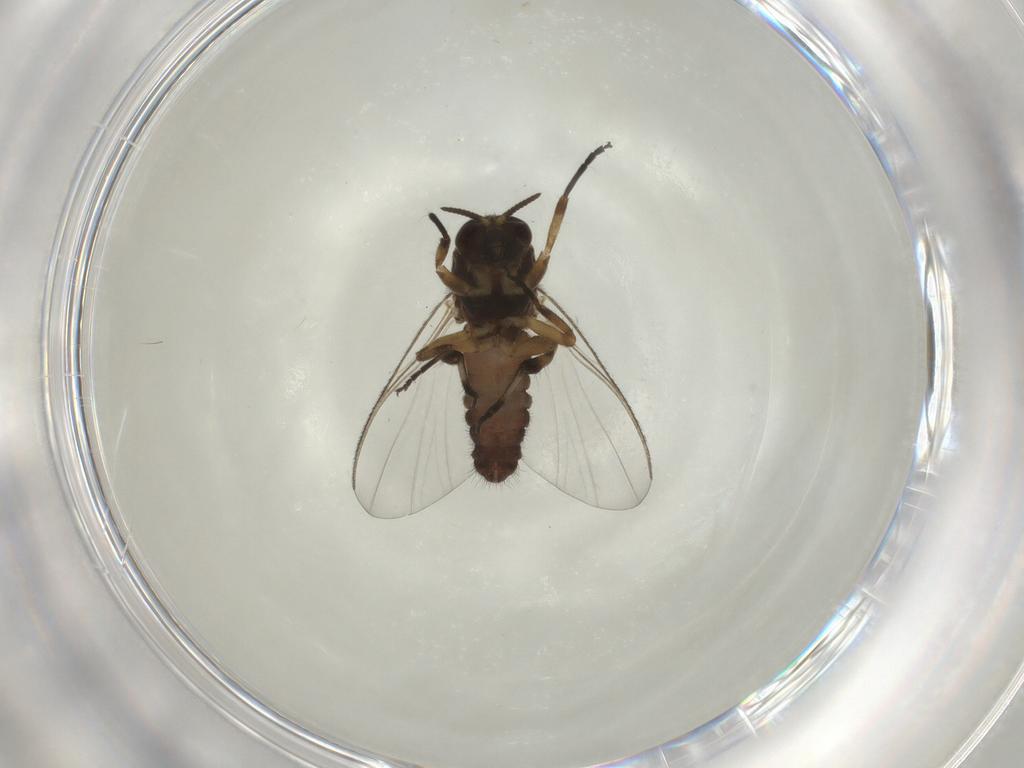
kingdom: Animalia
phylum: Arthropoda
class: Insecta
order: Diptera
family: Simuliidae
